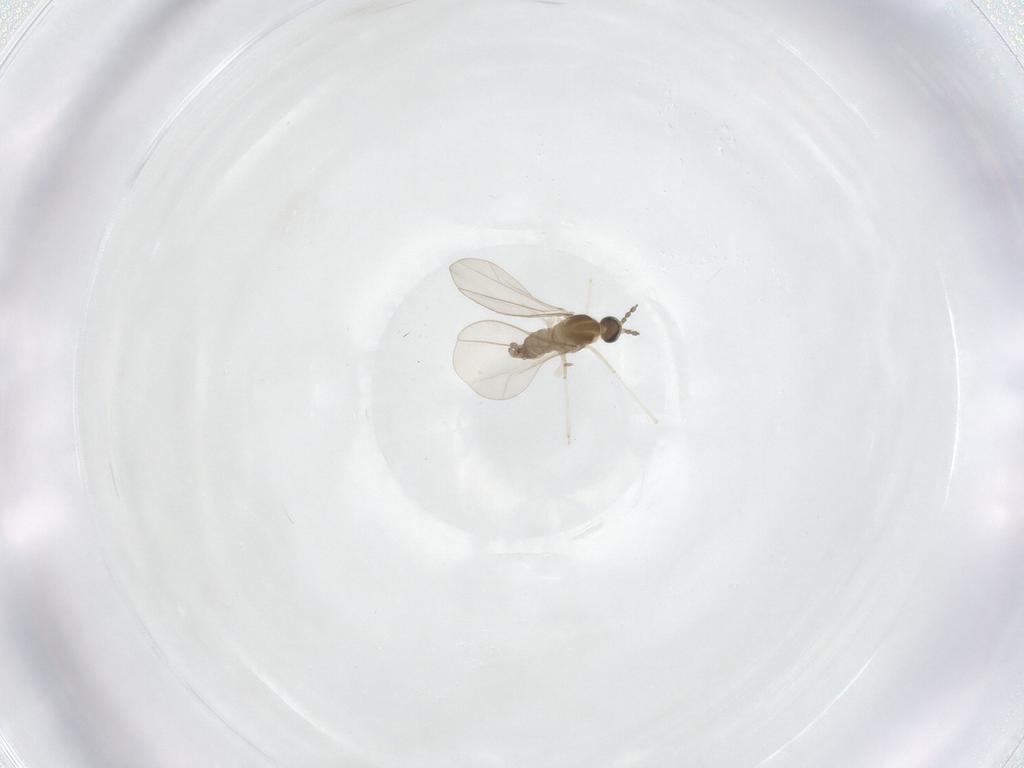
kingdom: Animalia
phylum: Arthropoda
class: Insecta
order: Diptera
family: Cecidomyiidae
